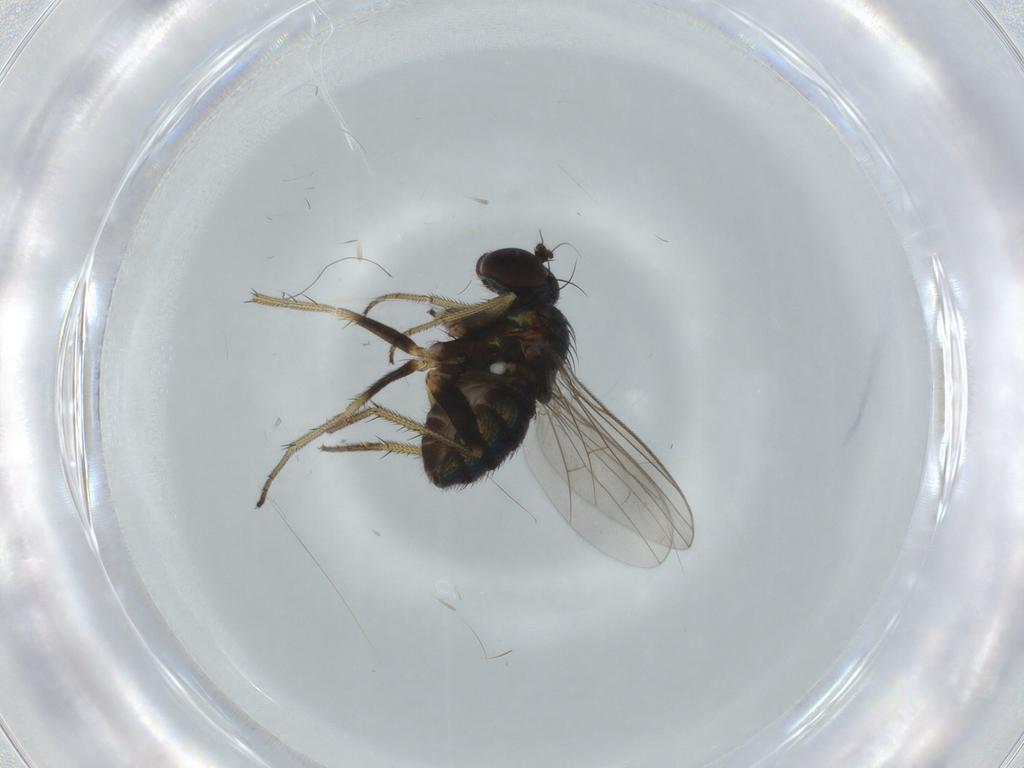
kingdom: Animalia
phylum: Arthropoda
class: Insecta
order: Diptera
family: Dolichopodidae
